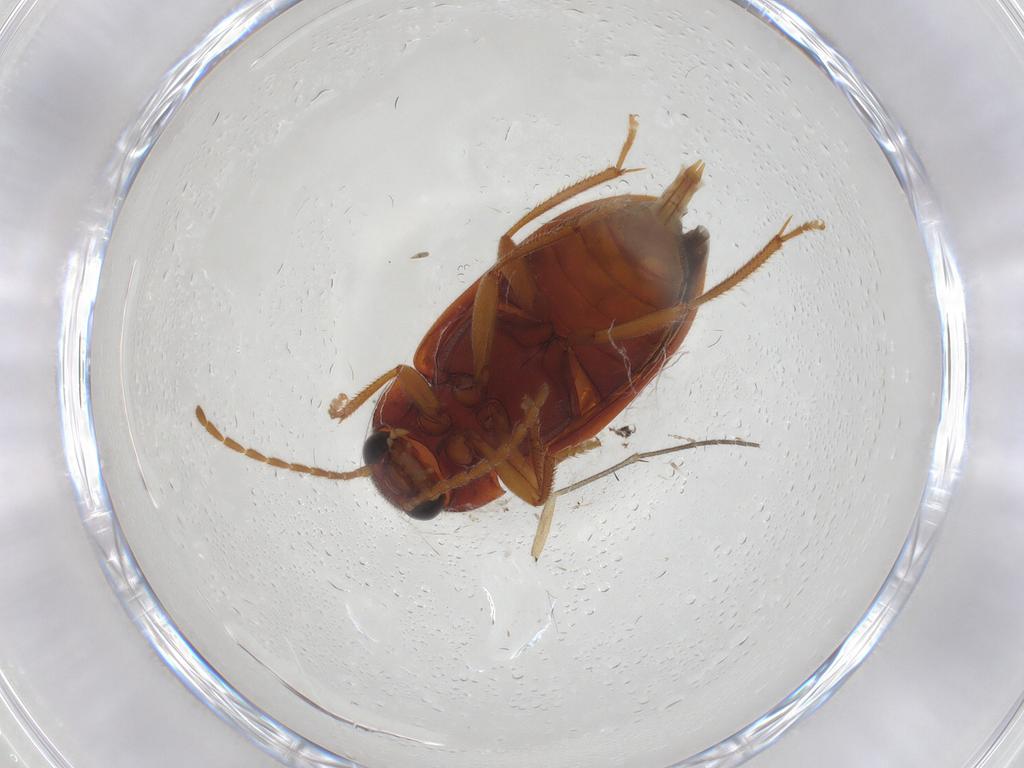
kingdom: Animalia
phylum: Arthropoda
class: Insecta
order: Coleoptera
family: Ptilodactylidae
